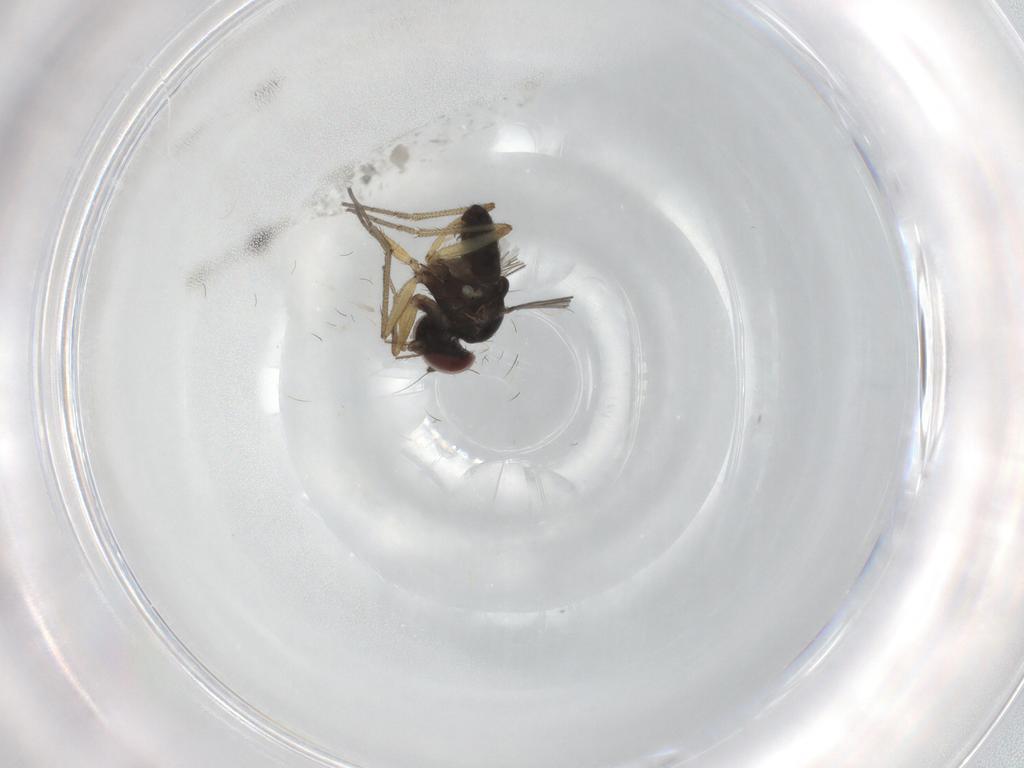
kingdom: Animalia
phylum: Arthropoda
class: Insecta
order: Diptera
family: Dolichopodidae
